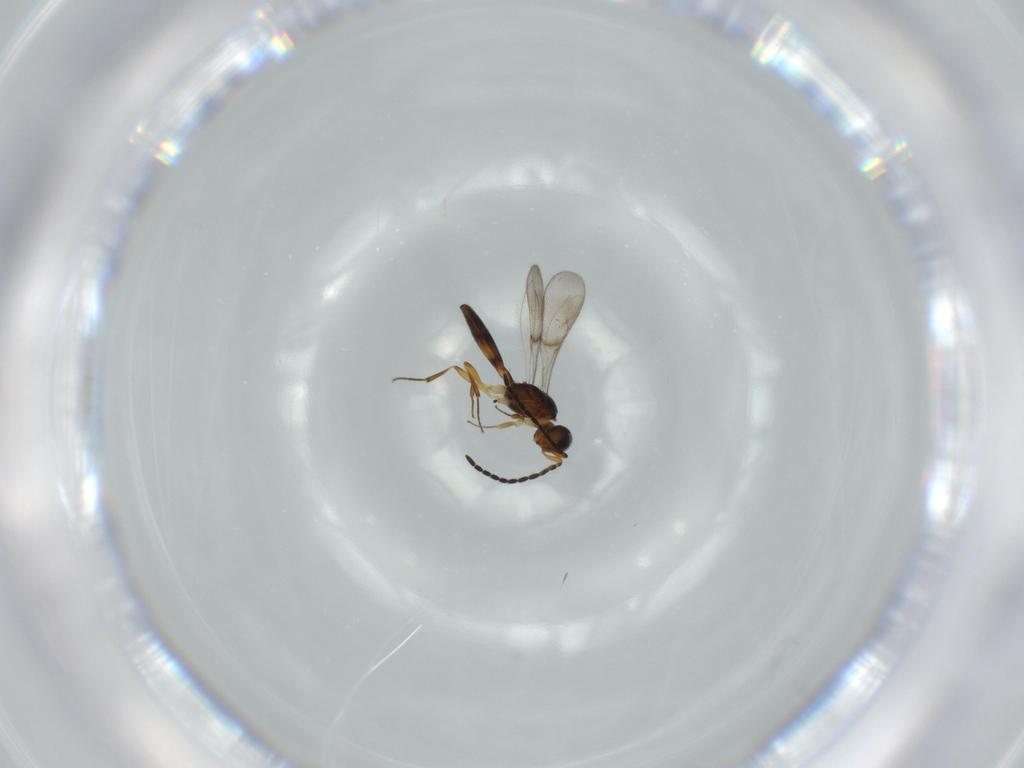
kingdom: Animalia
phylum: Arthropoda
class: Insecta
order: Hymenoptera
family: Scelionidae
